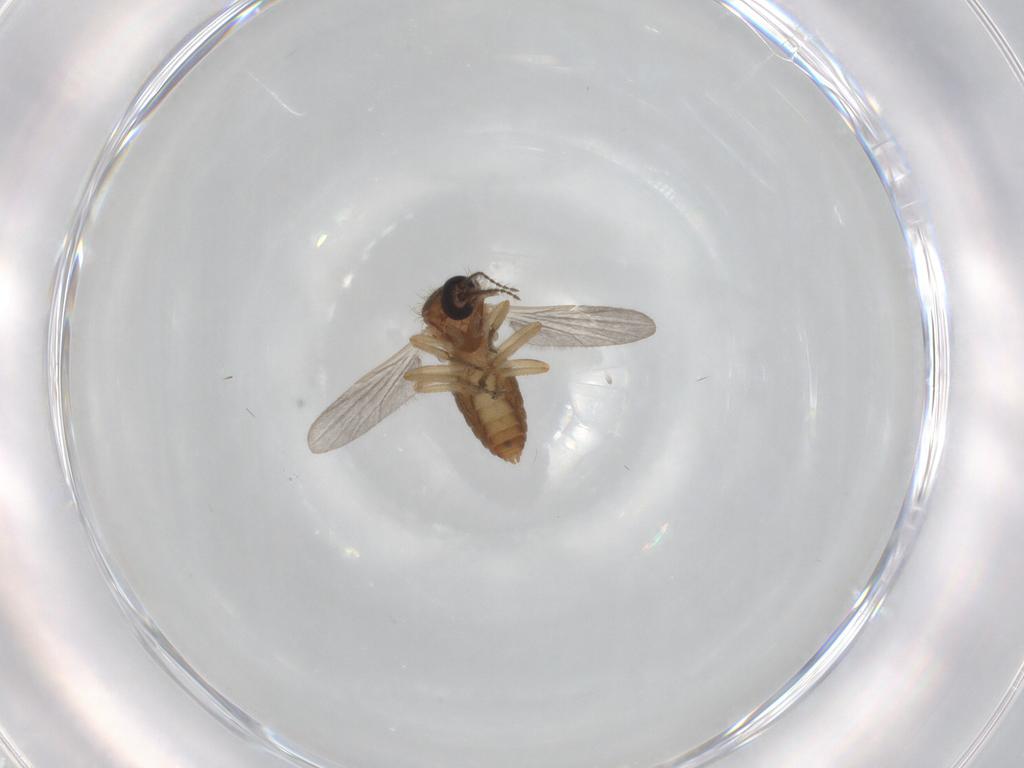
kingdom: Animalia
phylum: Arthropoda
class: Insecta
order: Diptera
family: Ceratopogonidae
